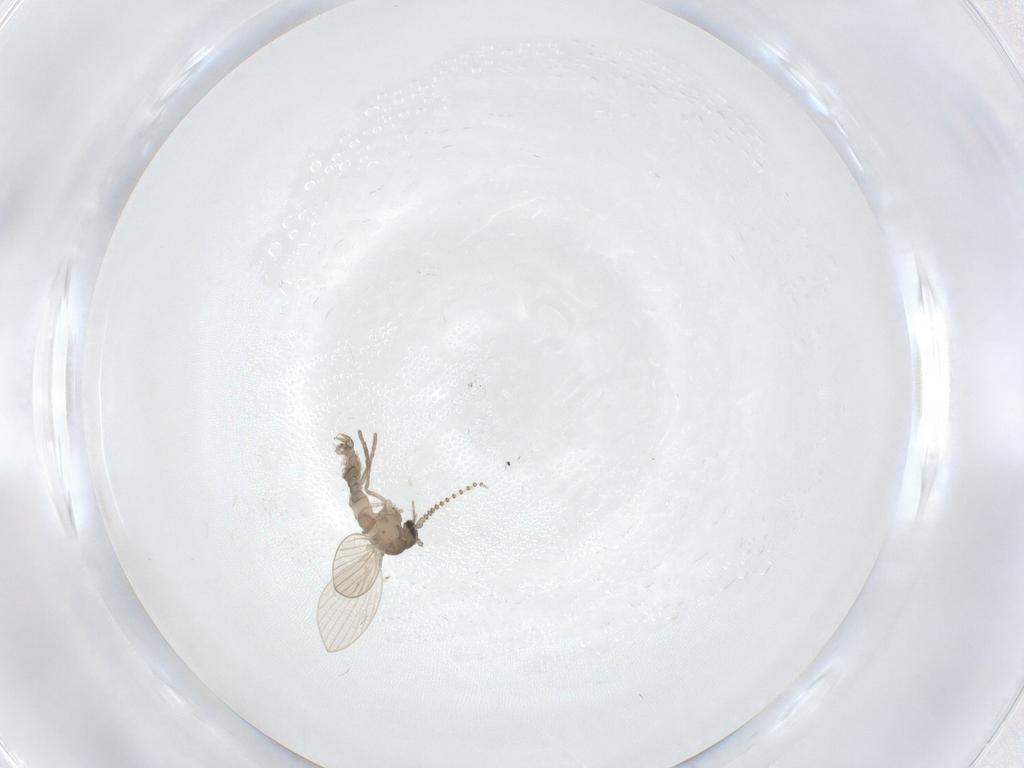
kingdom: Animalia
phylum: Arthropoda
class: Insecta
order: Diptera
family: Psychodidae
